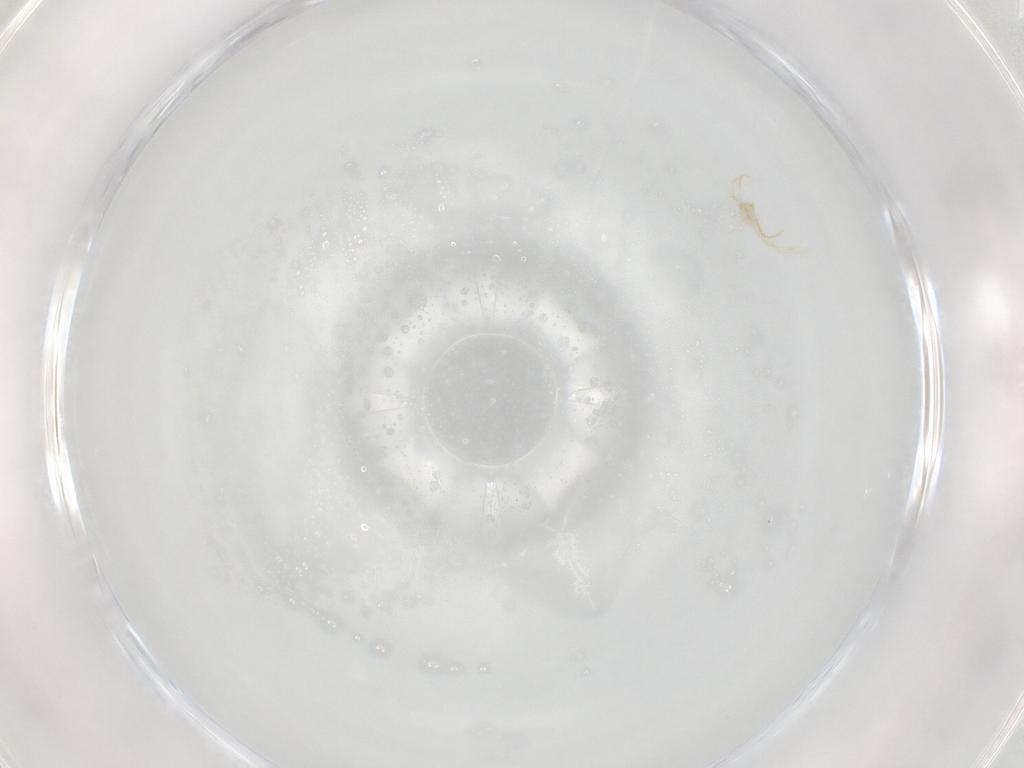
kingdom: Animalia
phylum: Arthropoda
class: Arachnida
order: Trombidiformes
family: Erythraeidae
